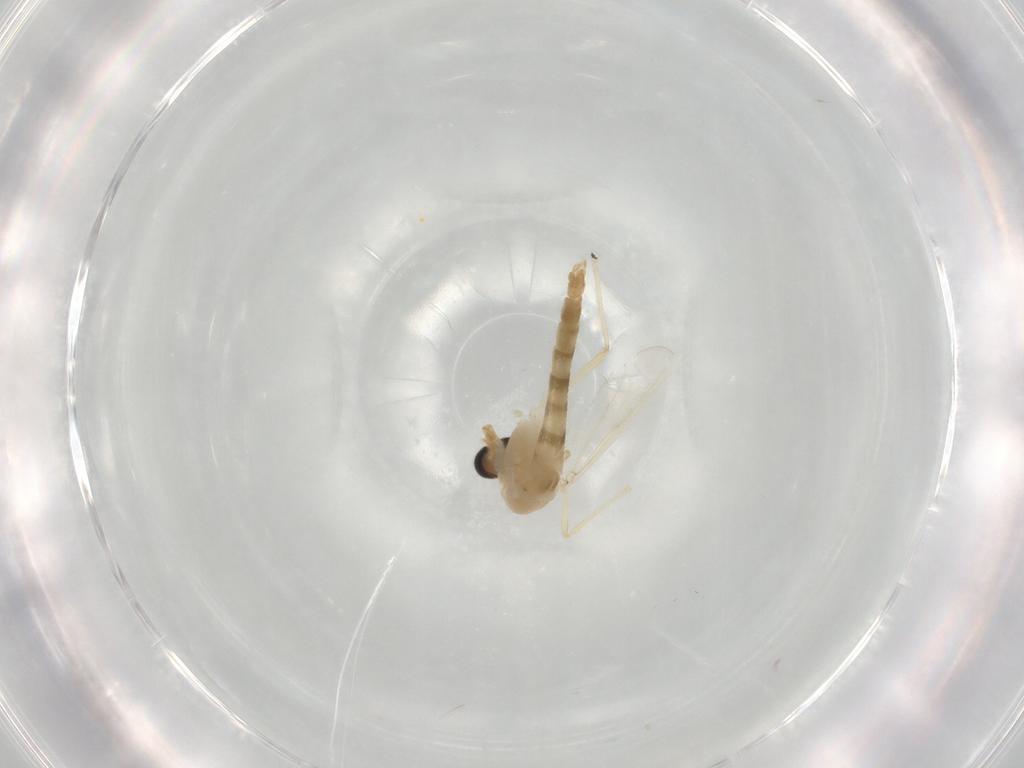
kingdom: Animalia
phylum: Arthropoda
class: Insecta
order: Diptera
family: Chironomidae
